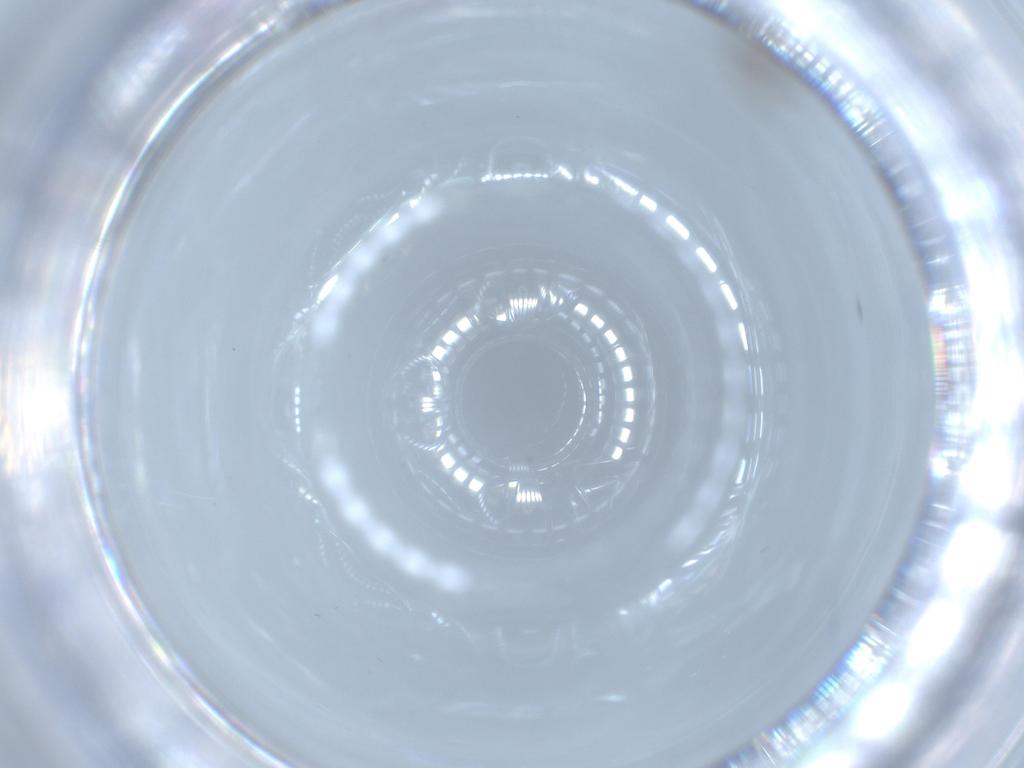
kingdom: Animalia
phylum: Arthropoda
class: Insecta
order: Diptera
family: Cecidomyiidae
